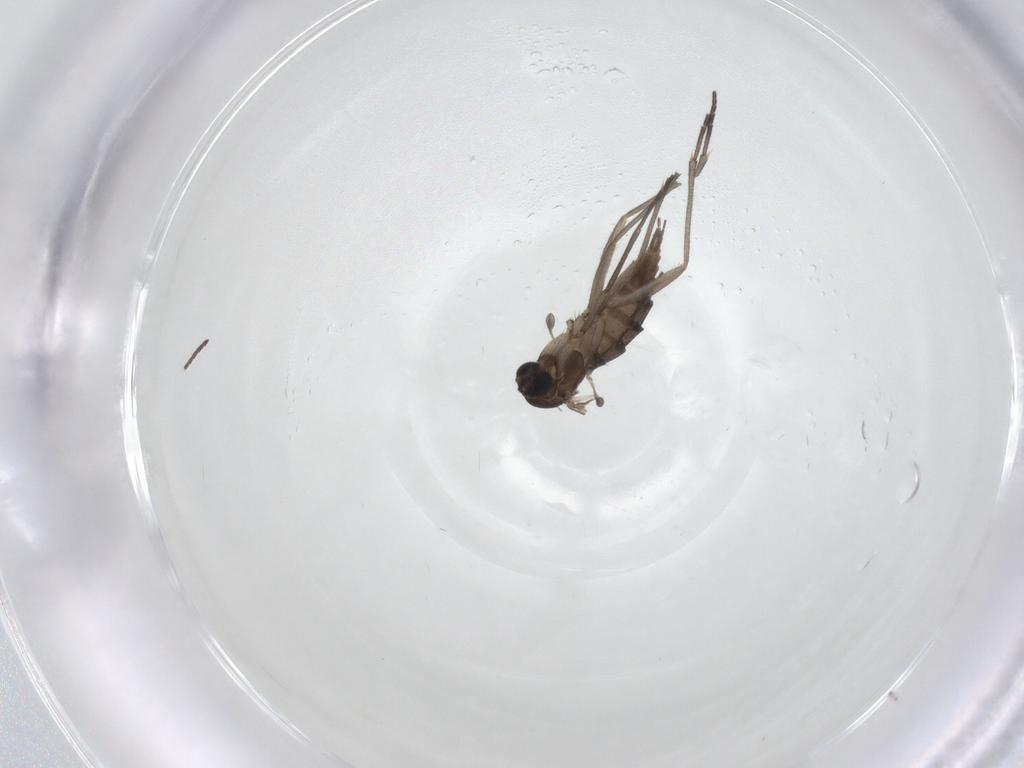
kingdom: Animalia
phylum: Arthropoda
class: Insecta
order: Diptera
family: Sciaridae
